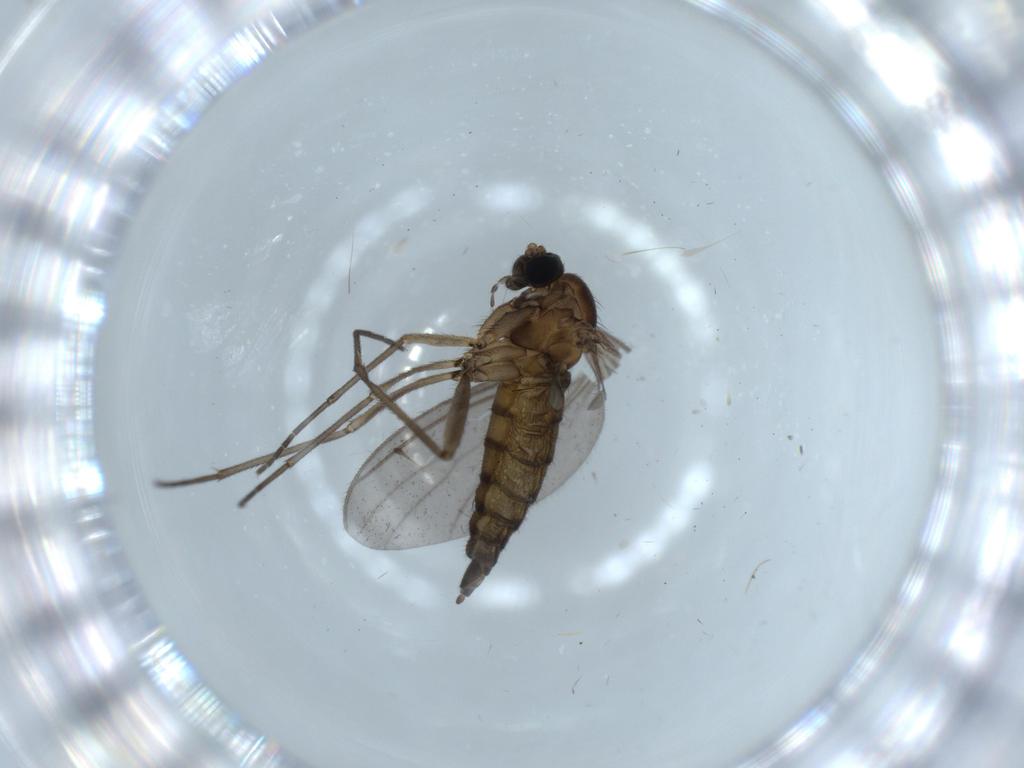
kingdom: Animalia
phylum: Arthropoda
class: Insecta
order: Diptera
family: Sciaridae
